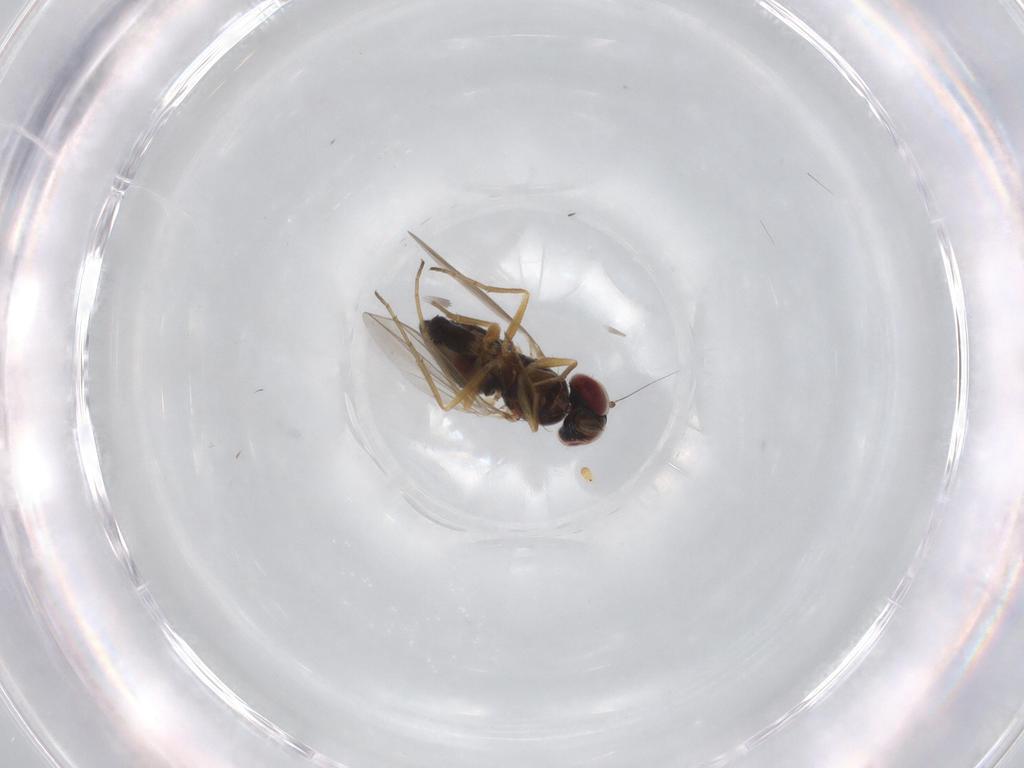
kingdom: Animalia
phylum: Arthropoda
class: Insecta
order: Diptera
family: Dolichopodidae
